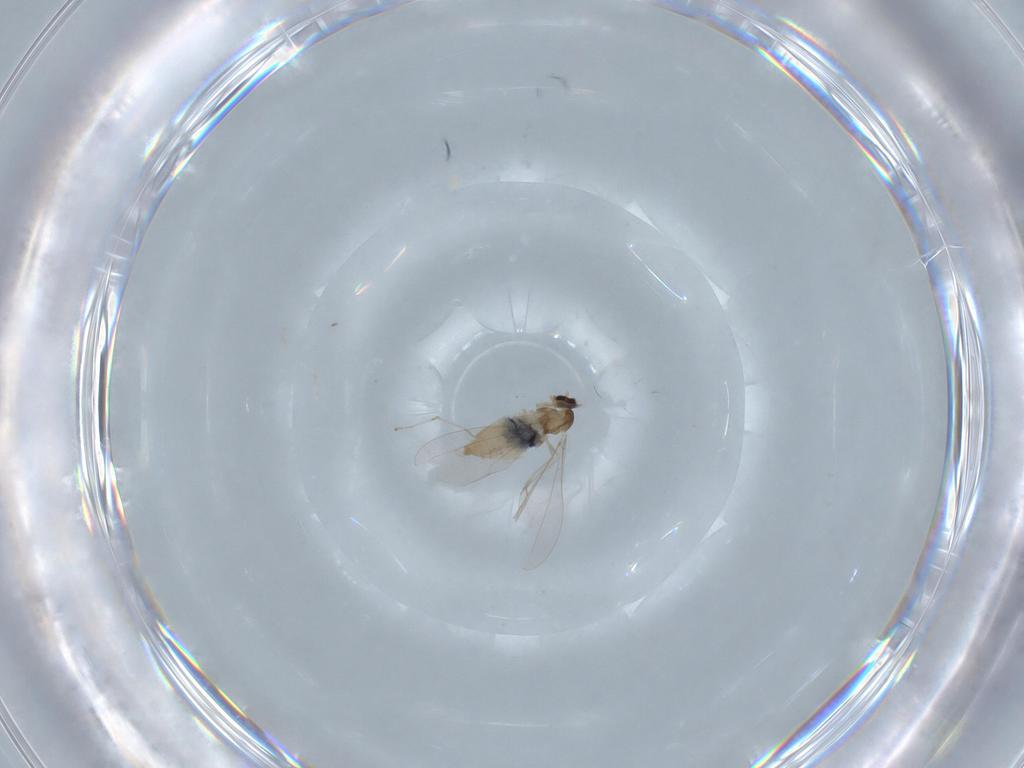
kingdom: Animalia
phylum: Arthropoda
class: Insecta
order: Diptera
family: Cecidomyiidae
